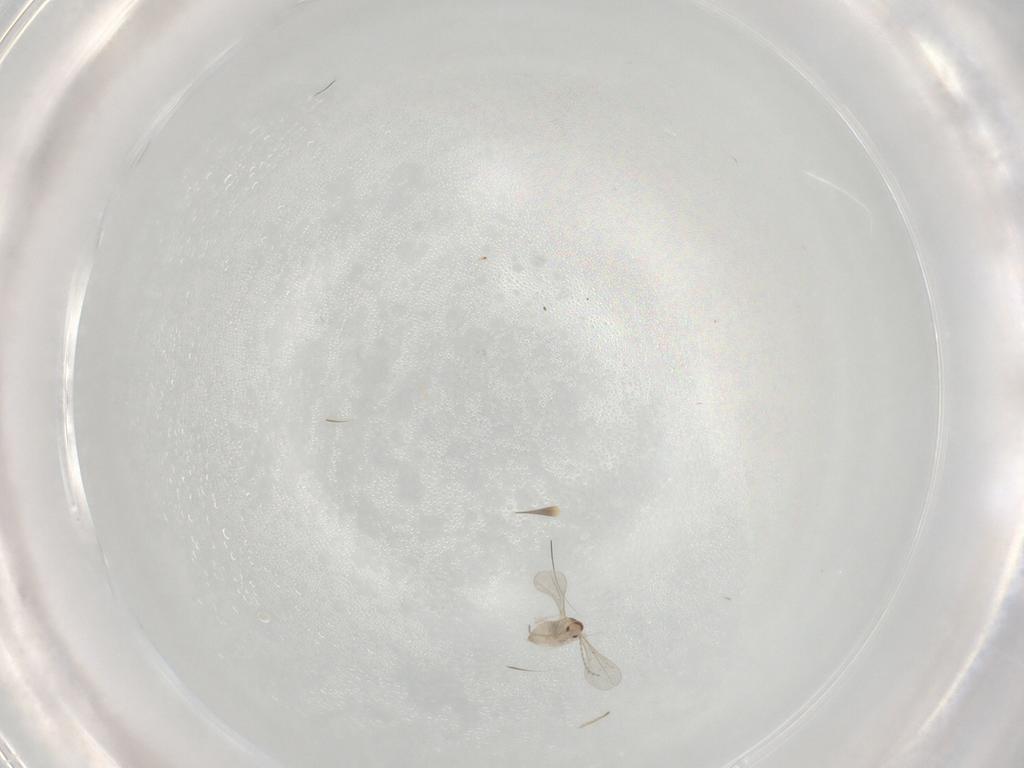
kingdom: Animalia
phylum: Arthropoda
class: Insecta
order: Diptera
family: Cecidomyiidae
